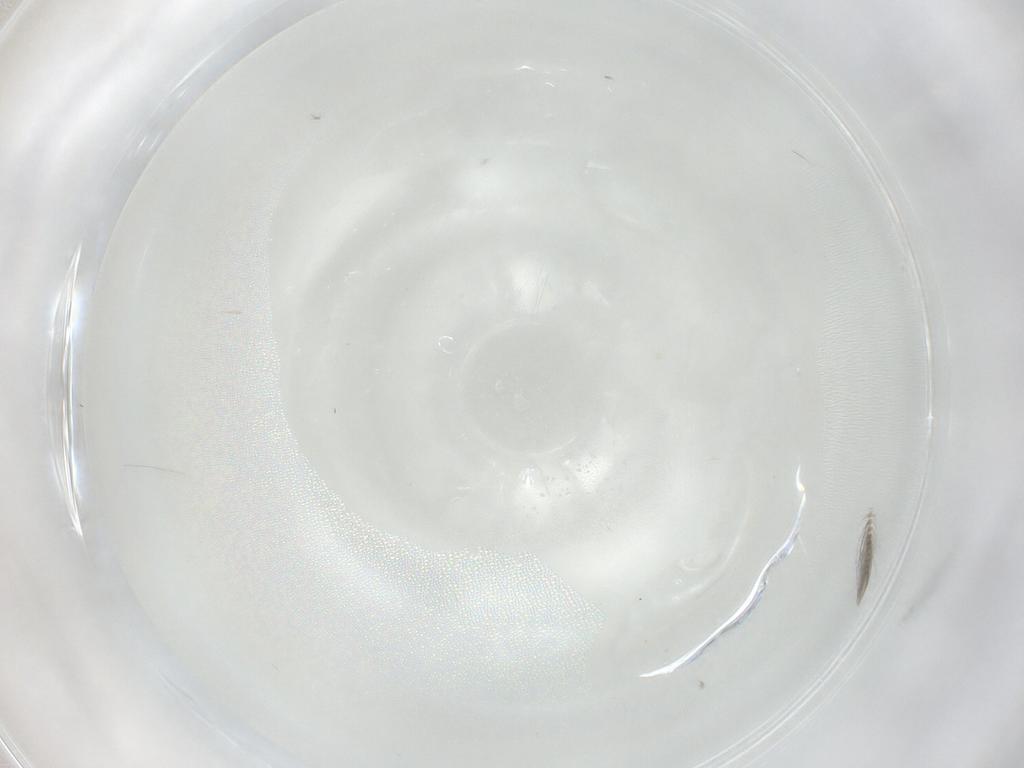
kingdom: Animalia
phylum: Arthropoda
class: Insecta
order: Diptera
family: Ceratopogonidae
